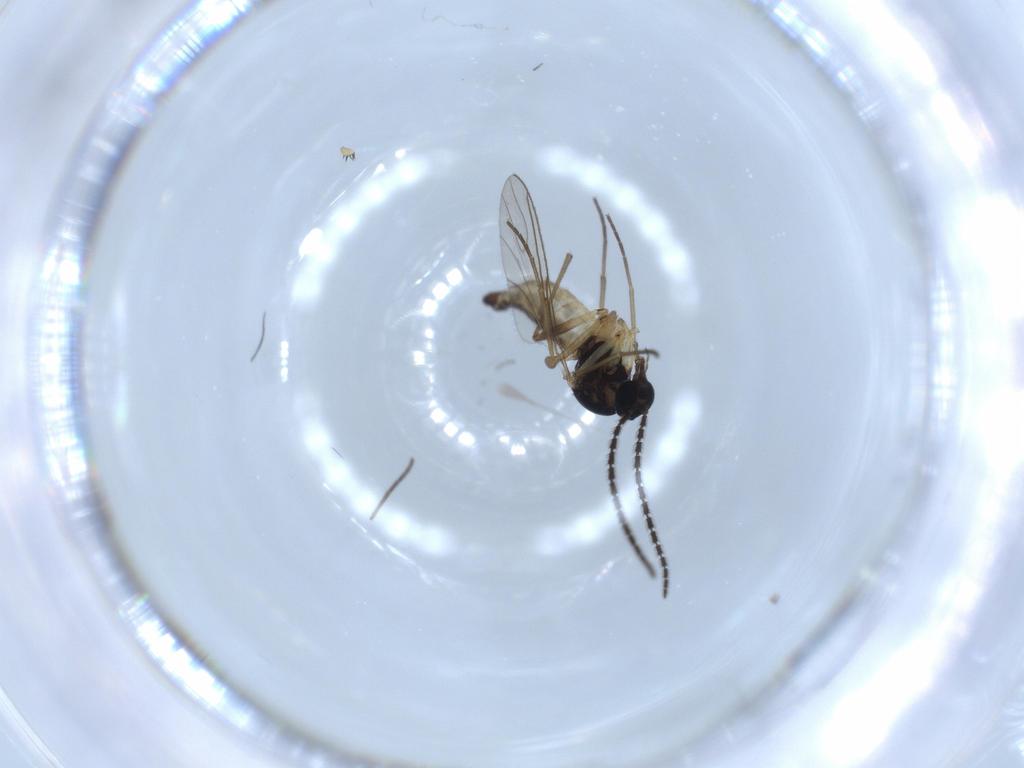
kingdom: Animalia
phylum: Arthropoda
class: Insecta
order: Diptera
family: Sciaridae
